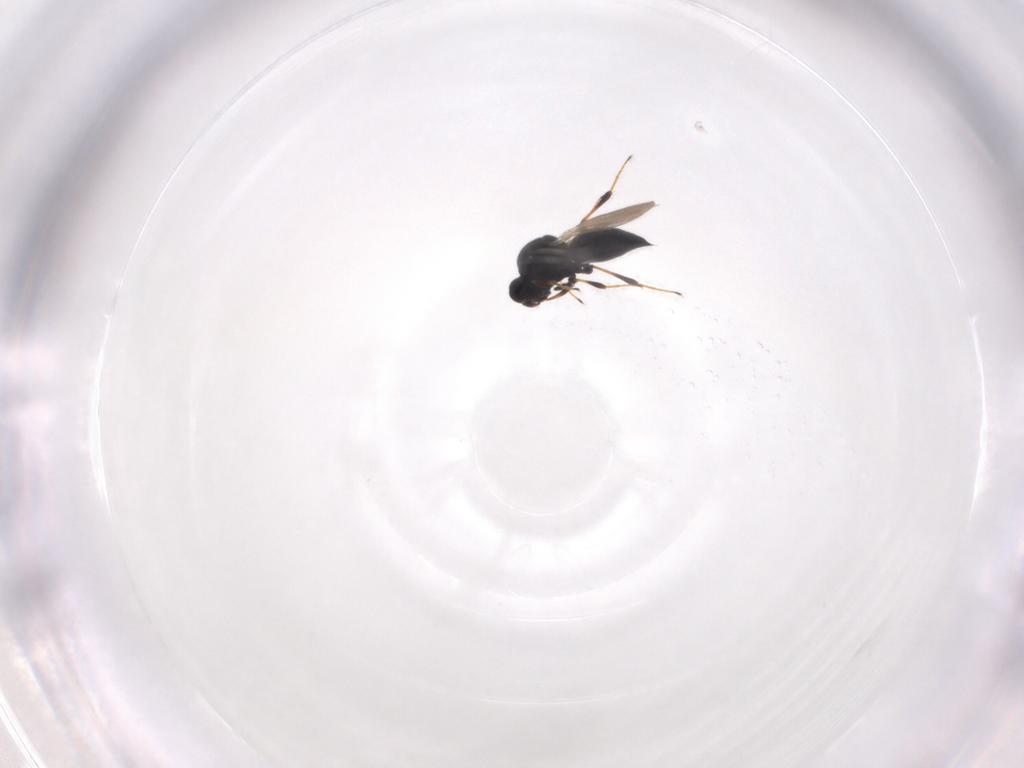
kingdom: Animalia
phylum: Arthropoda
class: Insecta
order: Hymenoptera
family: Platygastridae
